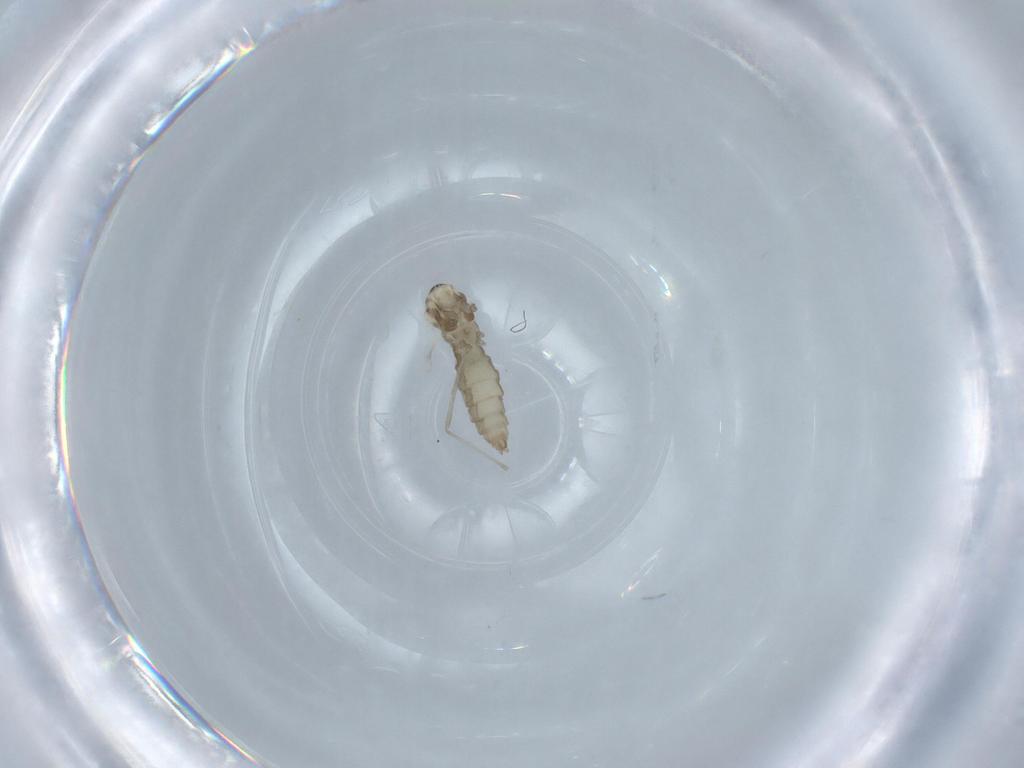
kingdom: Animalia
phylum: Arthropoda
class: Insecta
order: Diptera
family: Cecidomyiidae
